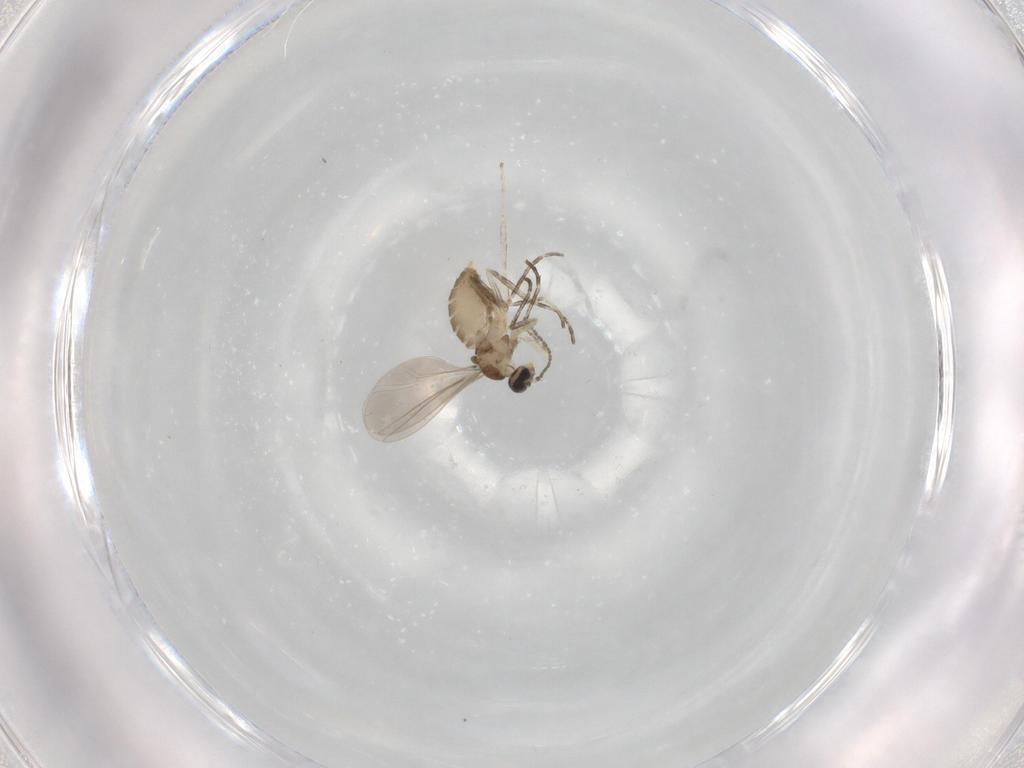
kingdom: Animalia
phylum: Arthropoda
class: Insecta
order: Diptera
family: Cecidomyiidae
